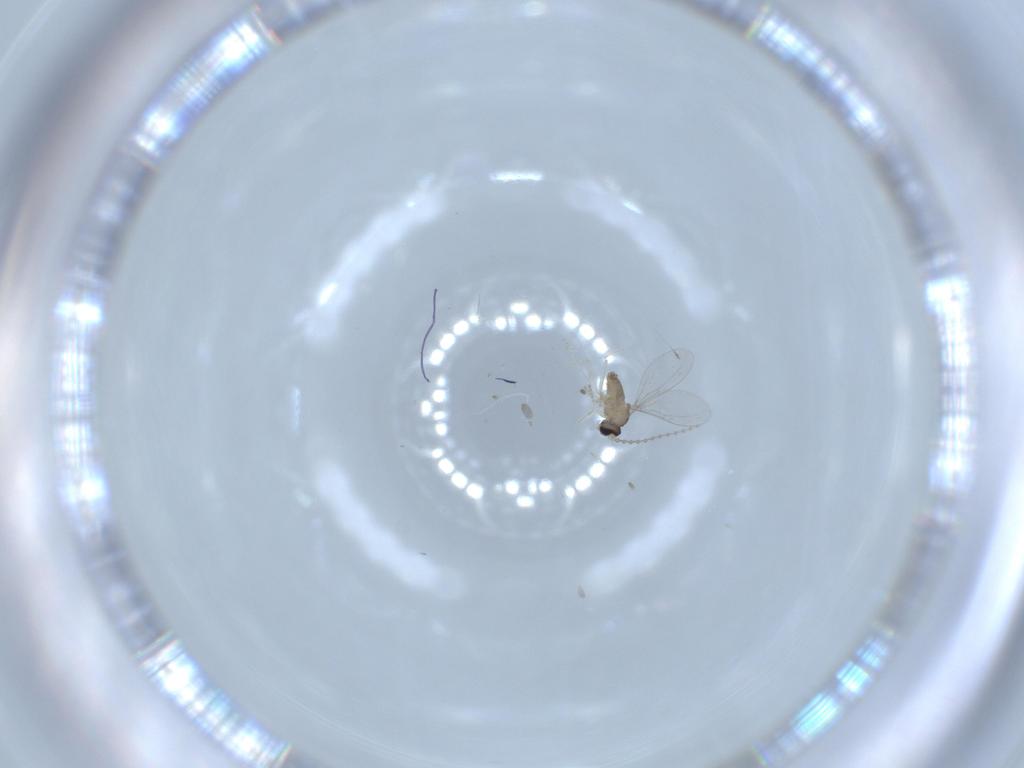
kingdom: Animalia
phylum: Arthropoda
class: Insecta
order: Diptera
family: Cecidomyiidae
